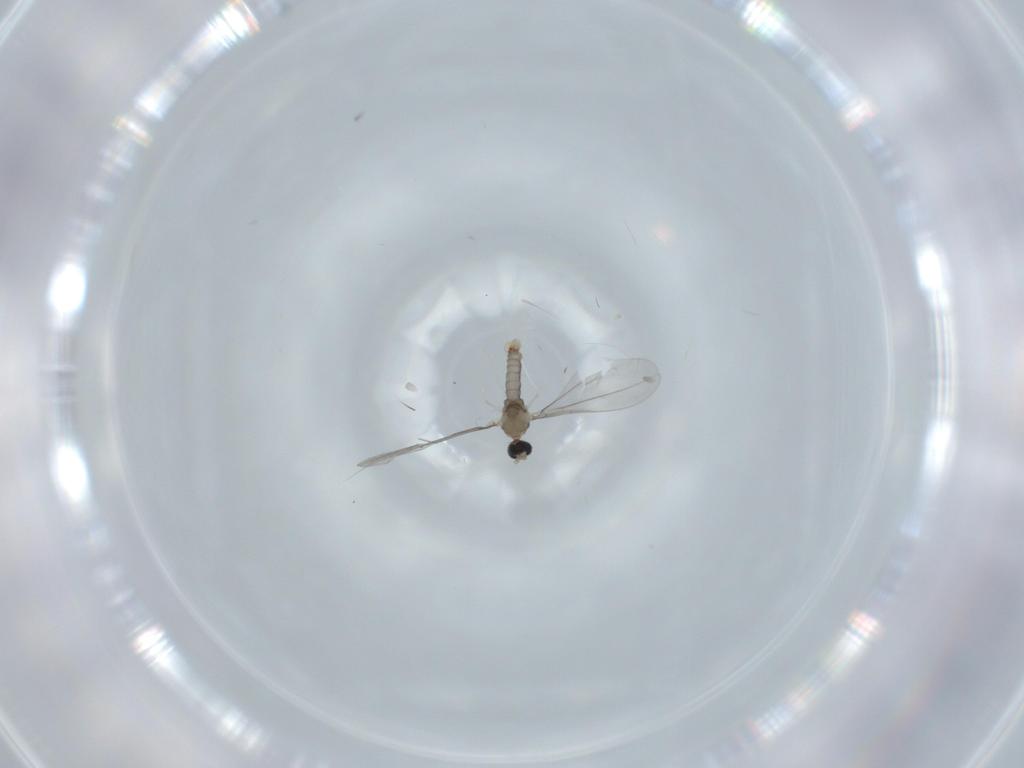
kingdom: Animalia
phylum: Arthropoda
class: Insecta
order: Diptera
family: Cecidomyiidae
